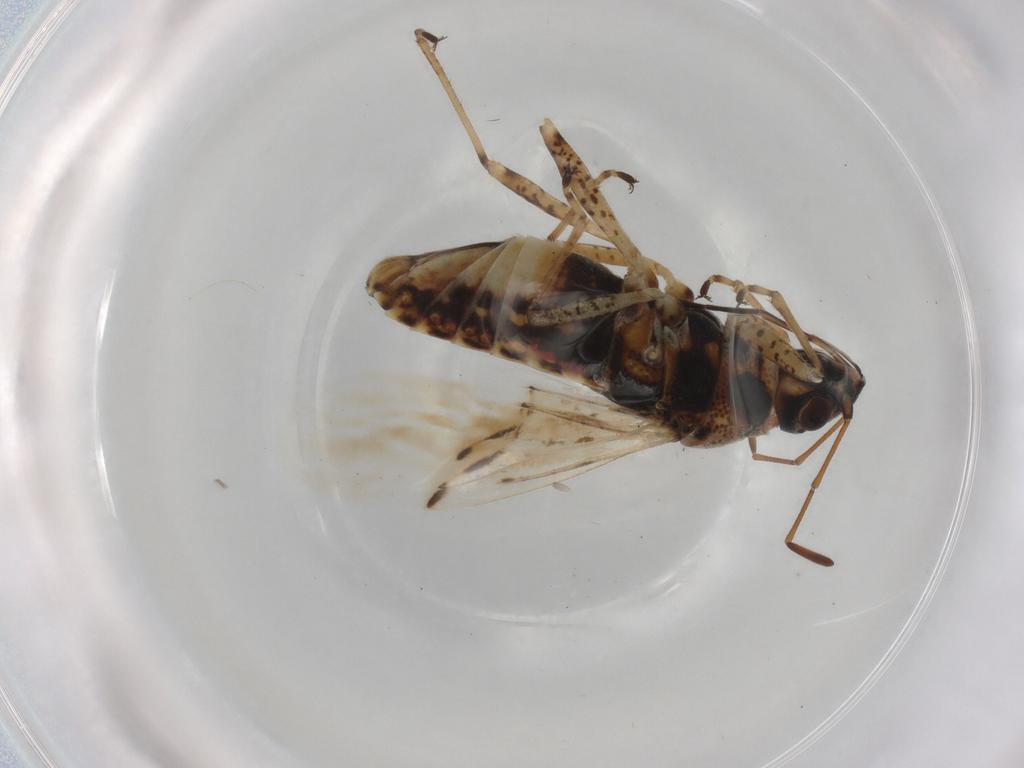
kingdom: Animalia
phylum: Arthropoda
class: Insecta
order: Hemiptera
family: Lygaeidae
